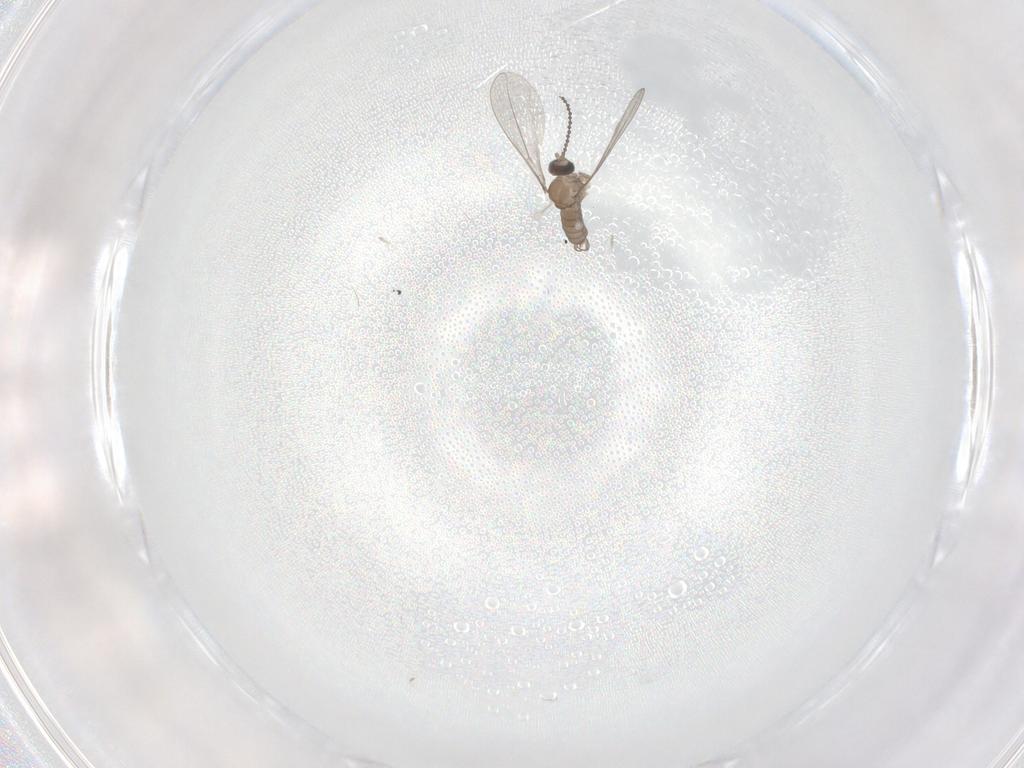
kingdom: Animalia
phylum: Arthropoda
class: Insecta
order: Diptera
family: Cecidomyiidae
